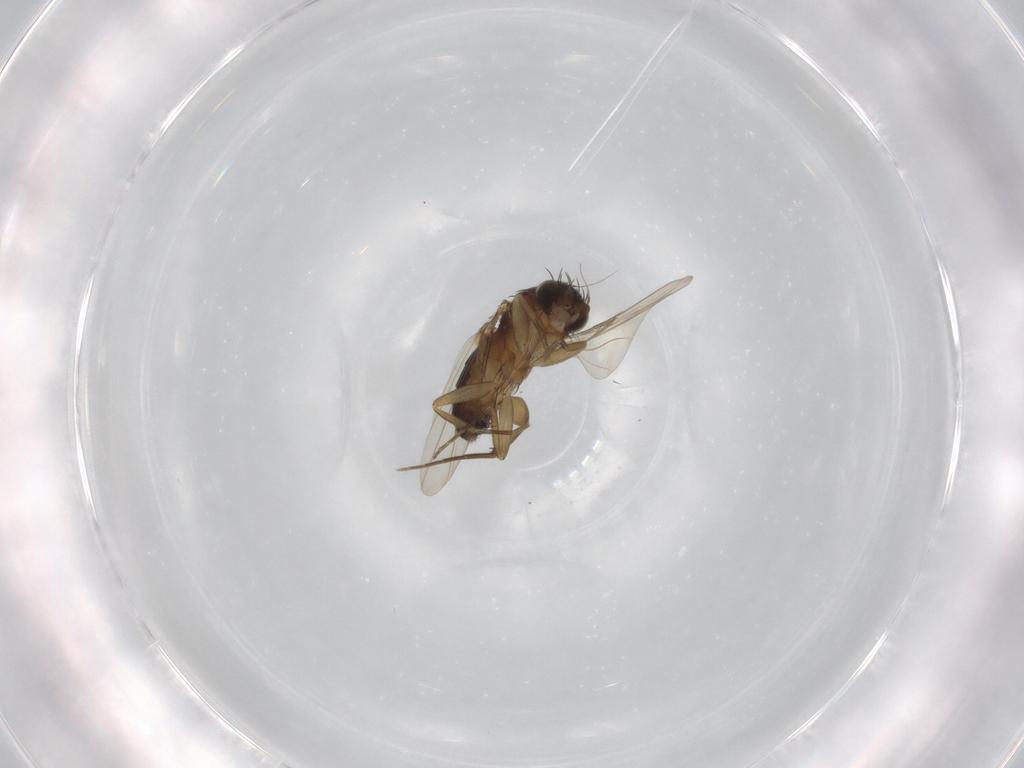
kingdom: Animalia
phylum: Arthropoda
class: Insecta
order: Diptera
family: Phoridae
